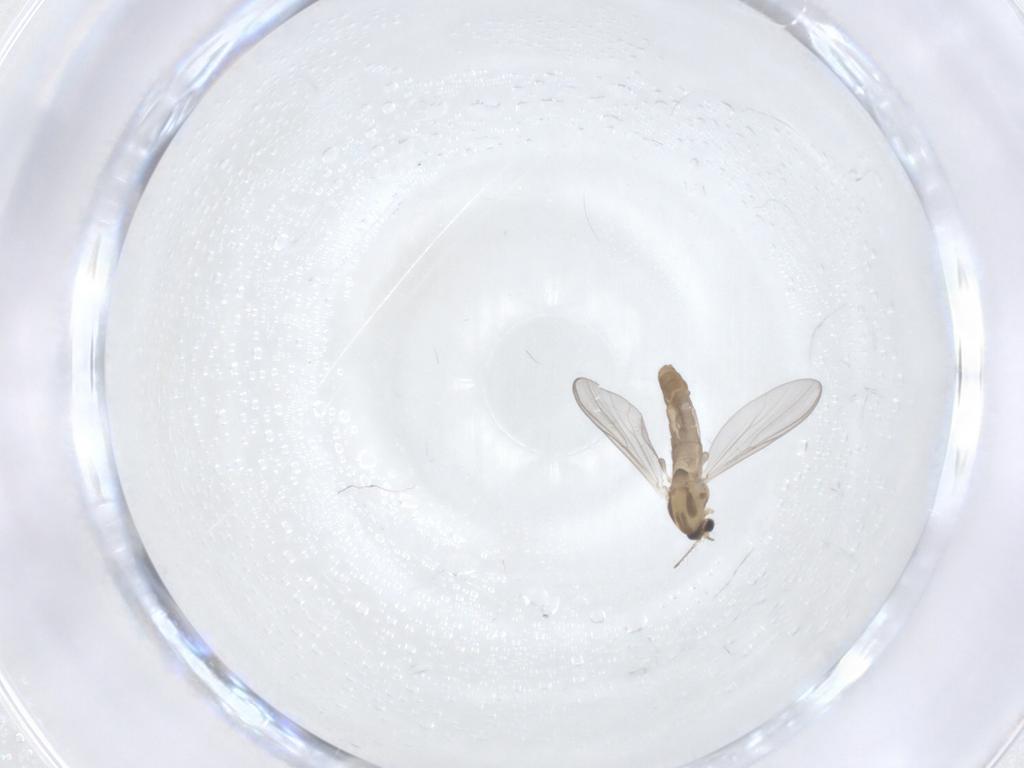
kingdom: Animalia
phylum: Arthropoda
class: Insecta
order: Diptera
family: Chironomidae
